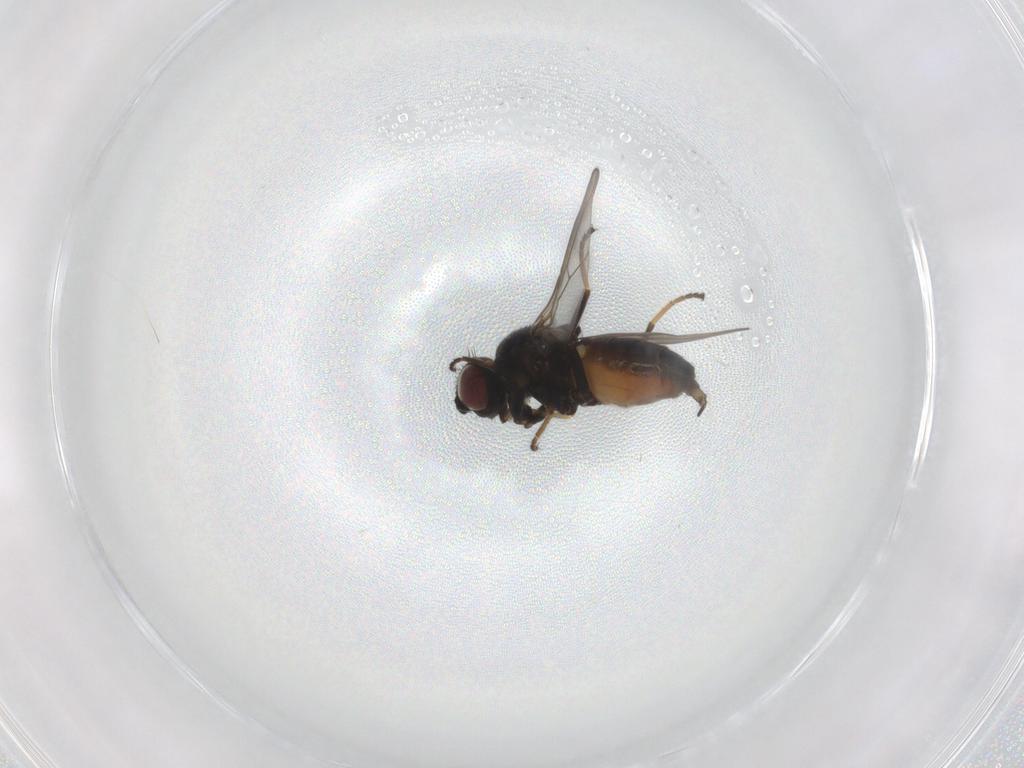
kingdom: Animalia
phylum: Arthropoda
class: Insecta
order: Diptera
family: Chloropidae
